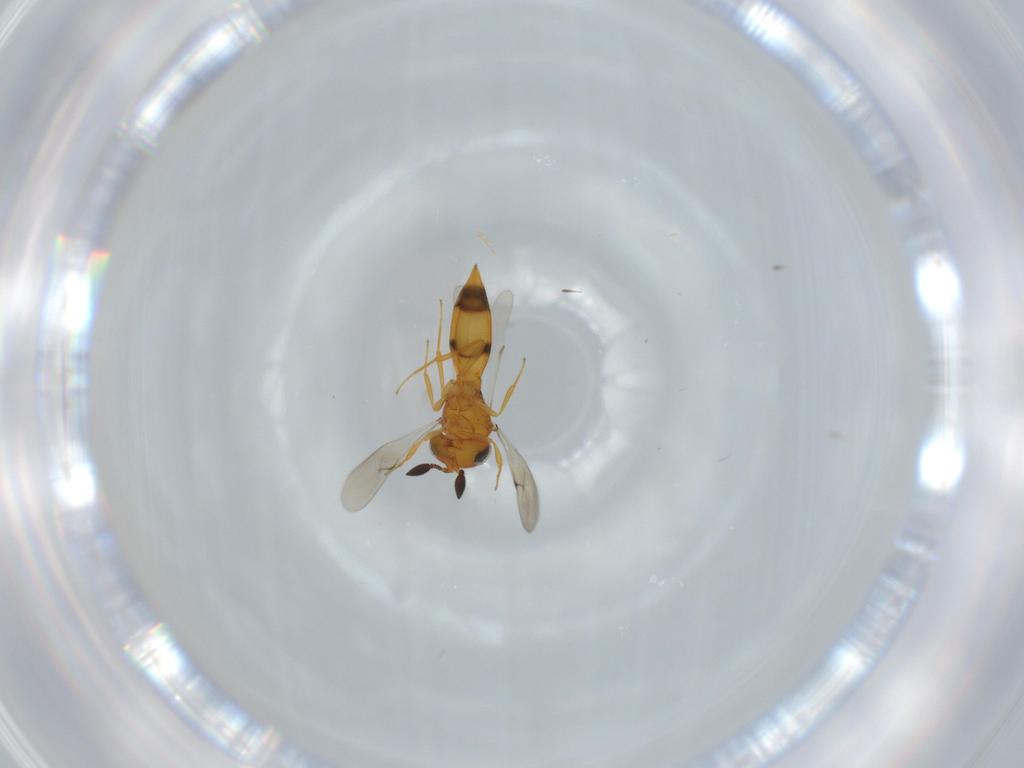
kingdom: Animalia
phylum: Arthropoda
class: Insecta
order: Hymenoptera
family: Scelionidae
